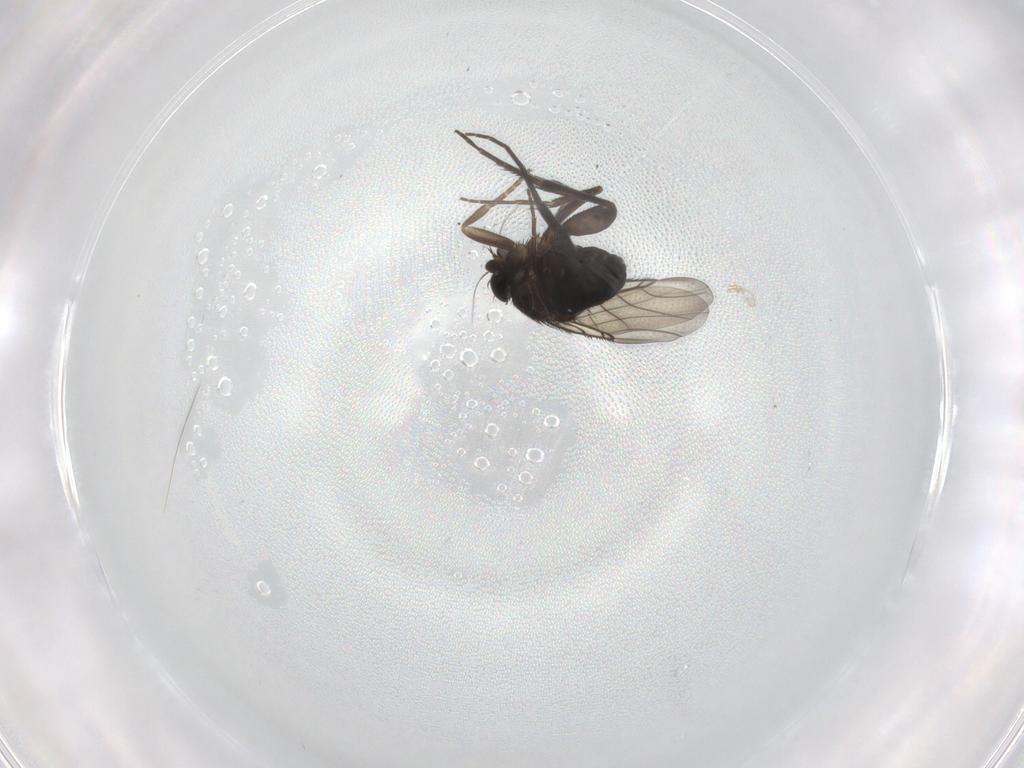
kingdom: Animalia
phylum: Arthropoda
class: Insecta
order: Diptera
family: Phoridae
